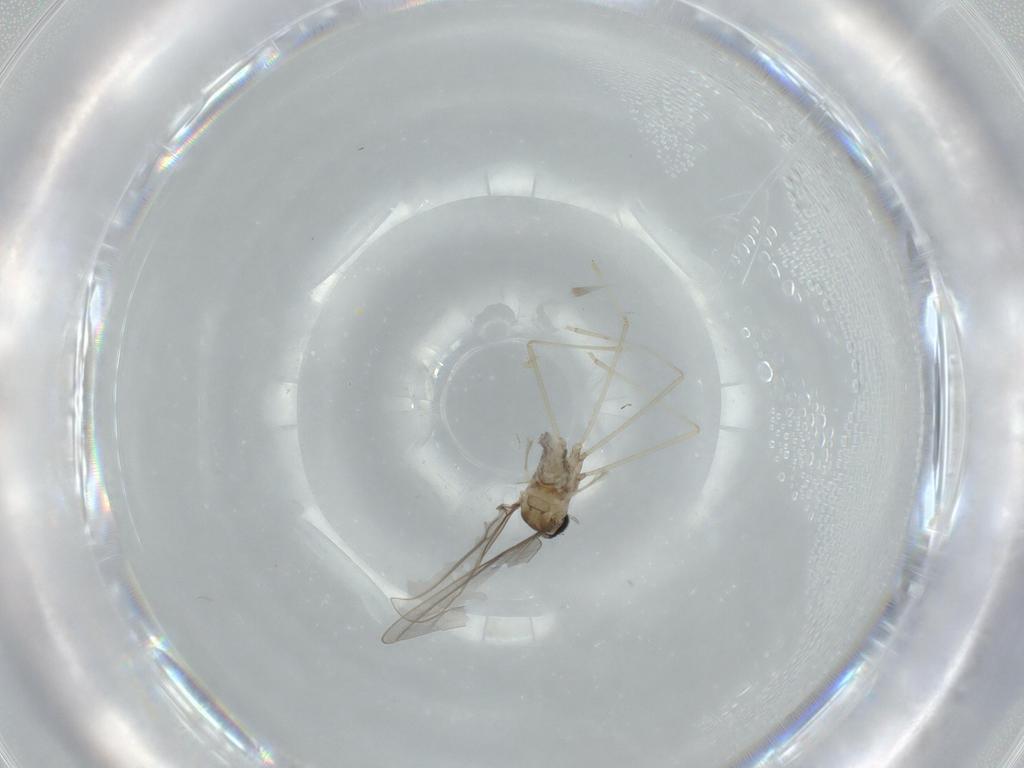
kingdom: Animalia
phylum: Arthropoda
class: Insecta
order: Diptera
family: Cecidomyiidae
